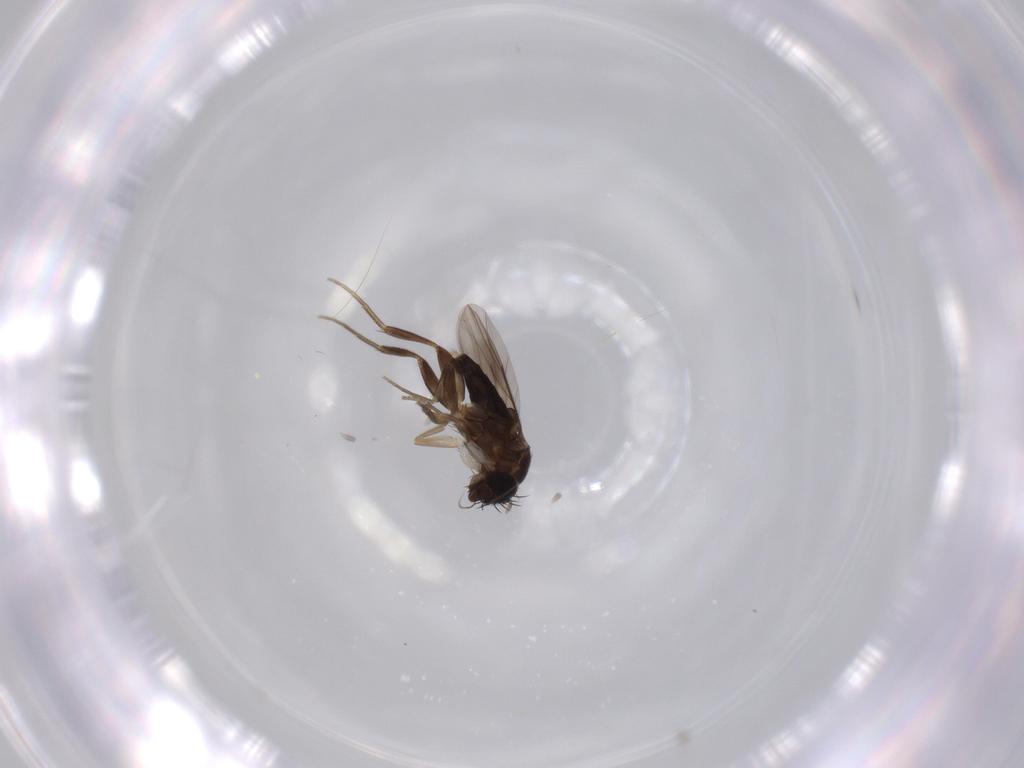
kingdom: Animalia
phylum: Arthropoda
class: Insecta
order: Diptera
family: Phoridae
